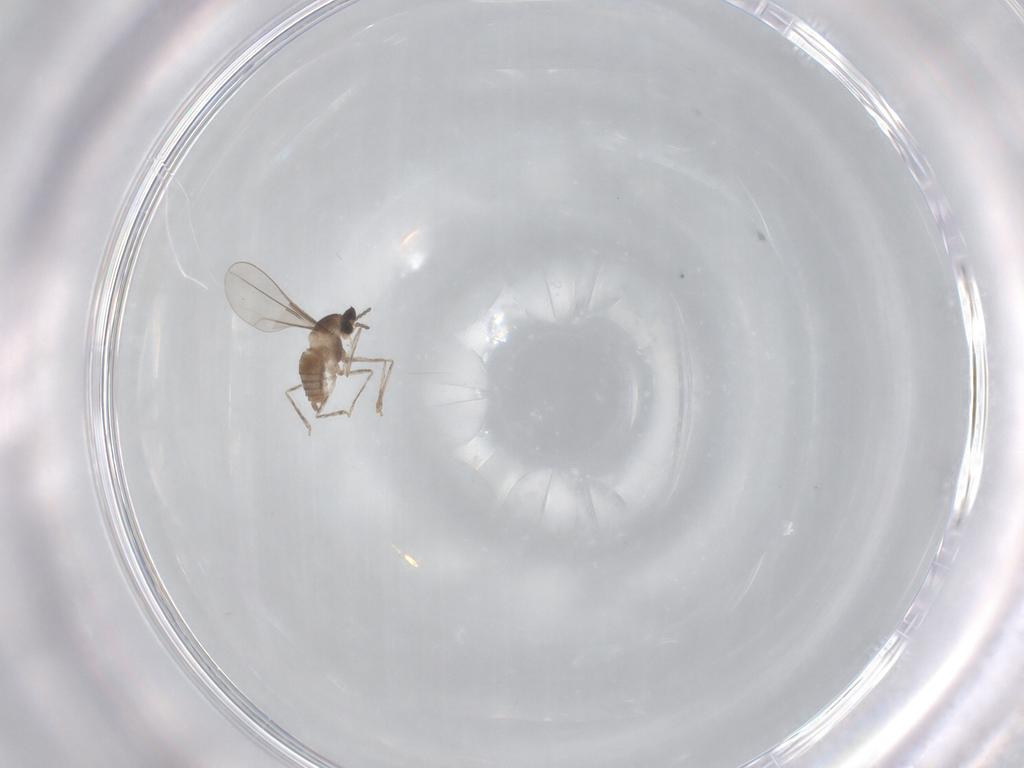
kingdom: Animalia
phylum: Arthropoda
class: Insecta
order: Diptera
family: Cecidomyiidae
